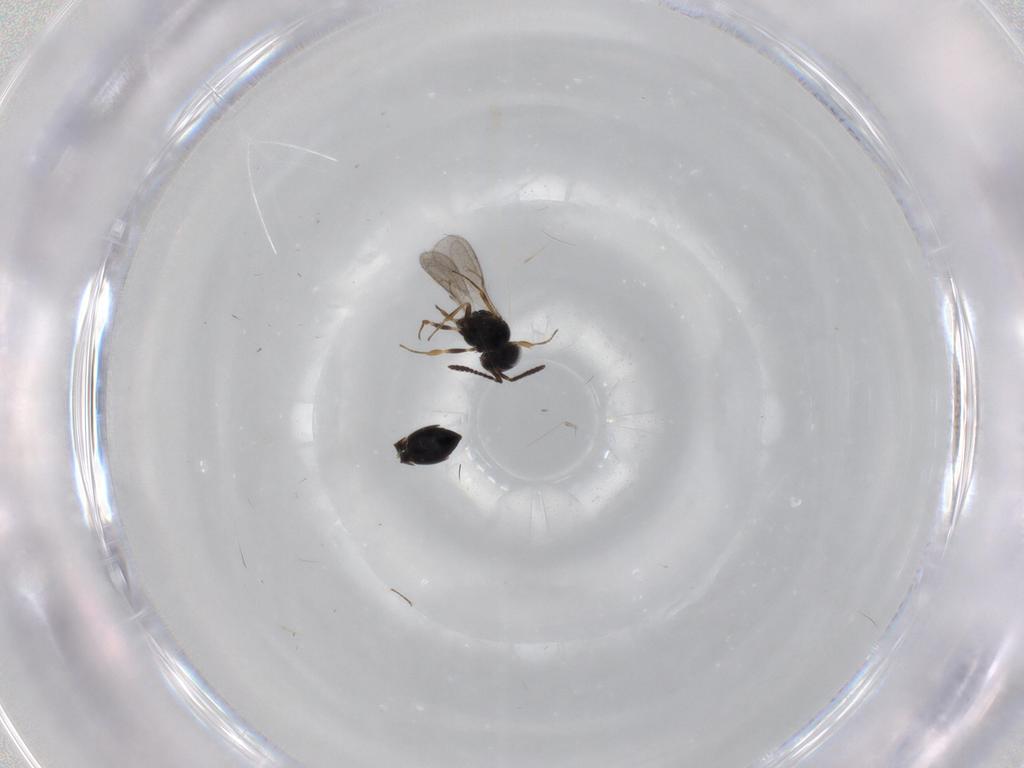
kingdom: Animalia
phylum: Arthropoda
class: Insecta
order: Hymenoptera
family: Scelionidae
